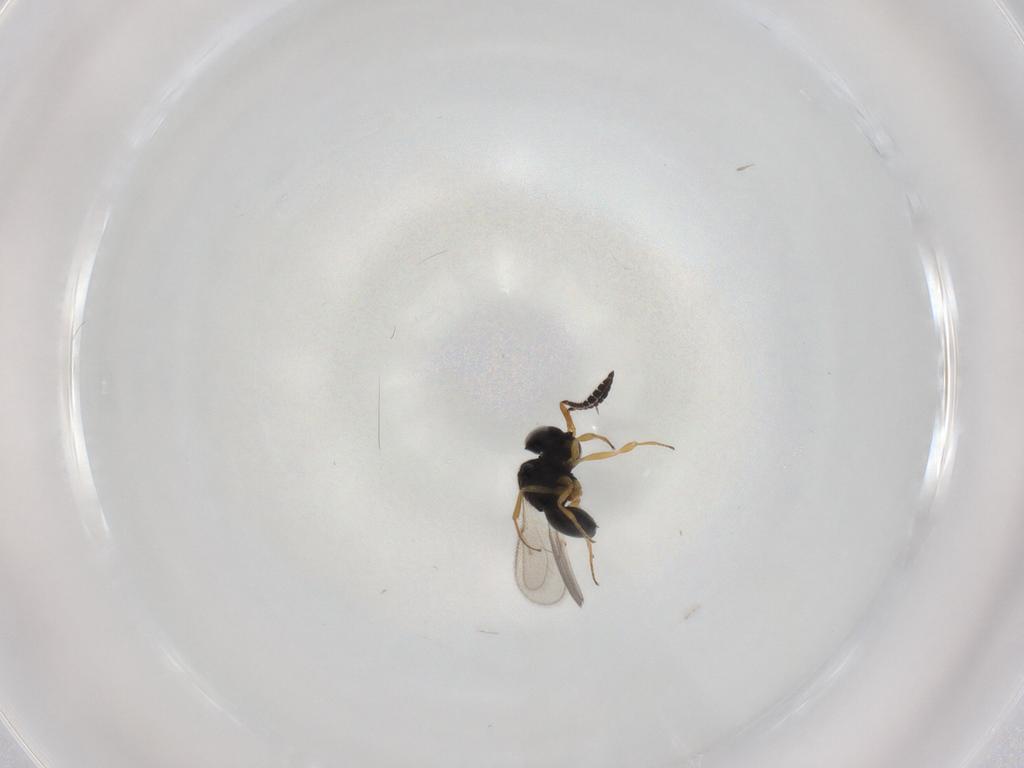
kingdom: Animalia
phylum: Arthropoda
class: Insecta
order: Hymenoptera
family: Scelionidae
